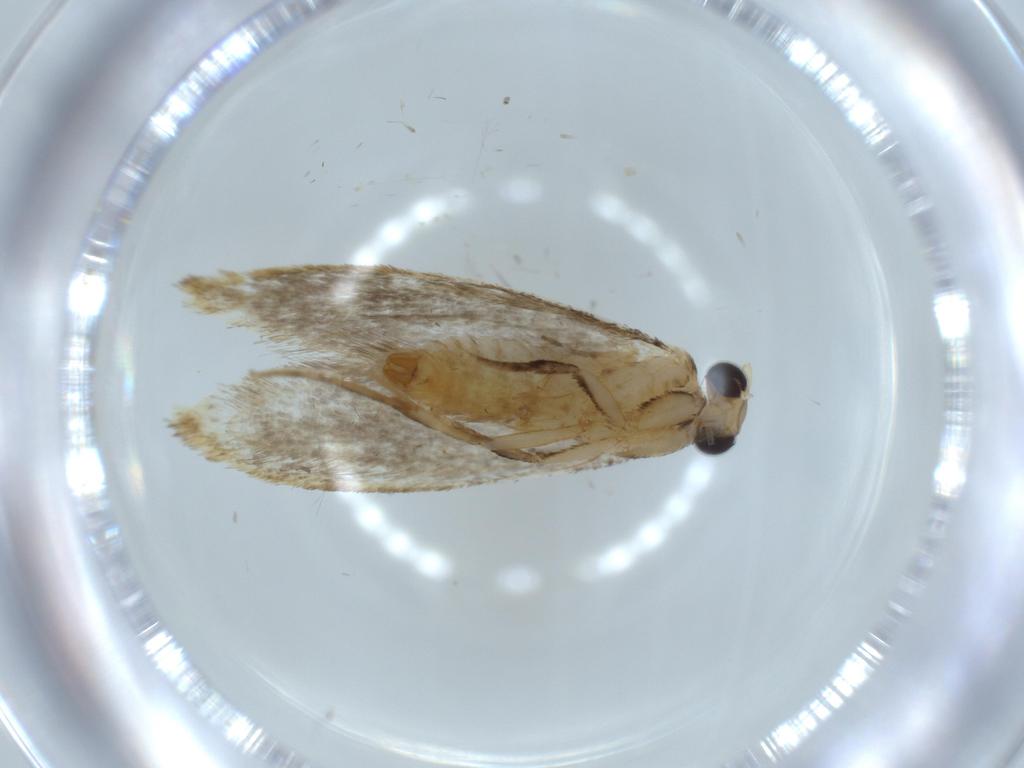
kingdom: Animalia
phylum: Arthropoda
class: Insecta
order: Lepidoptera
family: Tineidae
